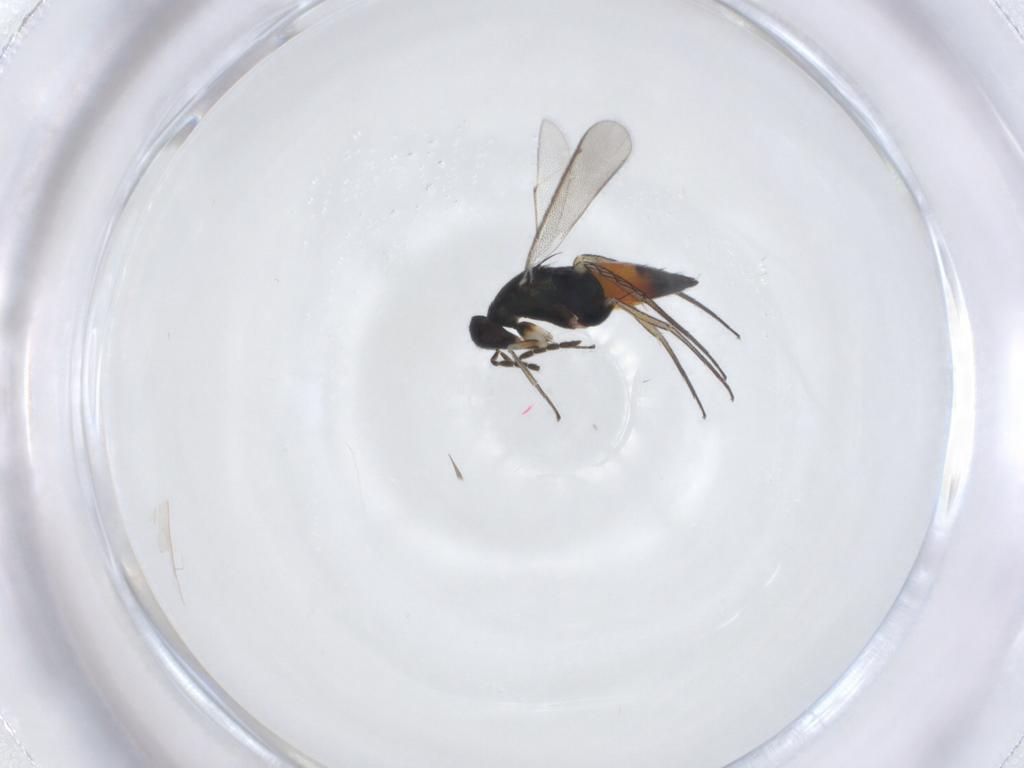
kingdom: Animalia
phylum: Arthropoda
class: Insecta
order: Hymenoptera
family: Eulophidae
